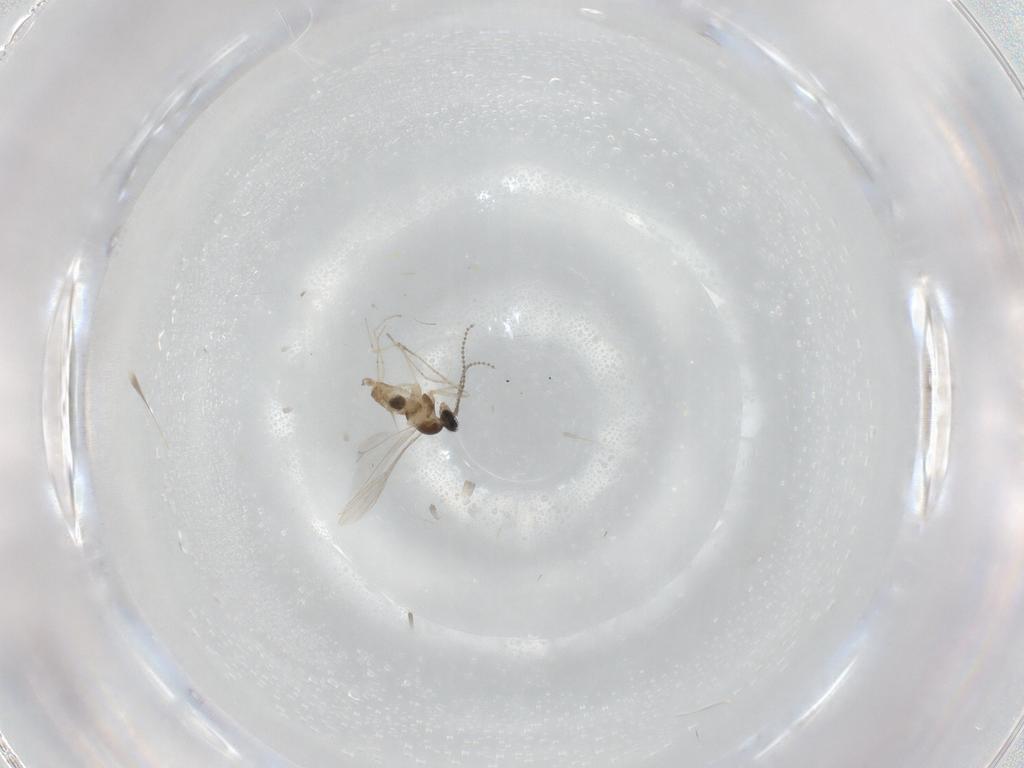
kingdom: Animalia
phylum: Arthropoda
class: Insecta
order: Diptera
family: Cecidomyiidae
